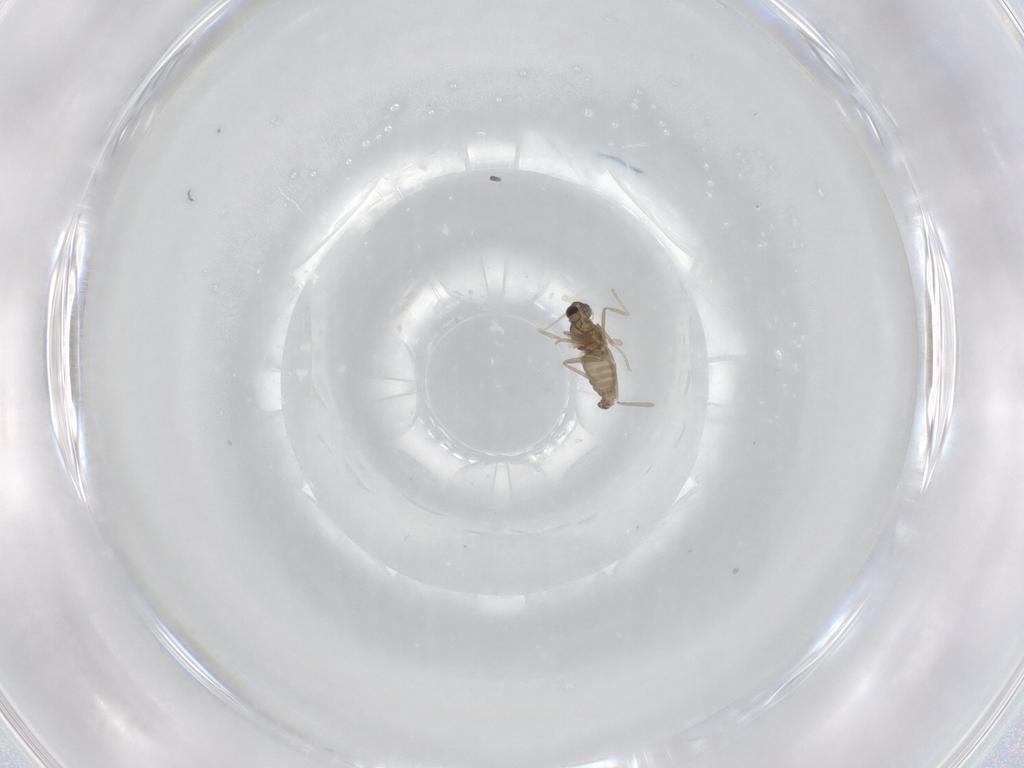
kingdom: Animalia
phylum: Arthropoda
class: Insecta
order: Diptera
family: Cecidomyiidae
